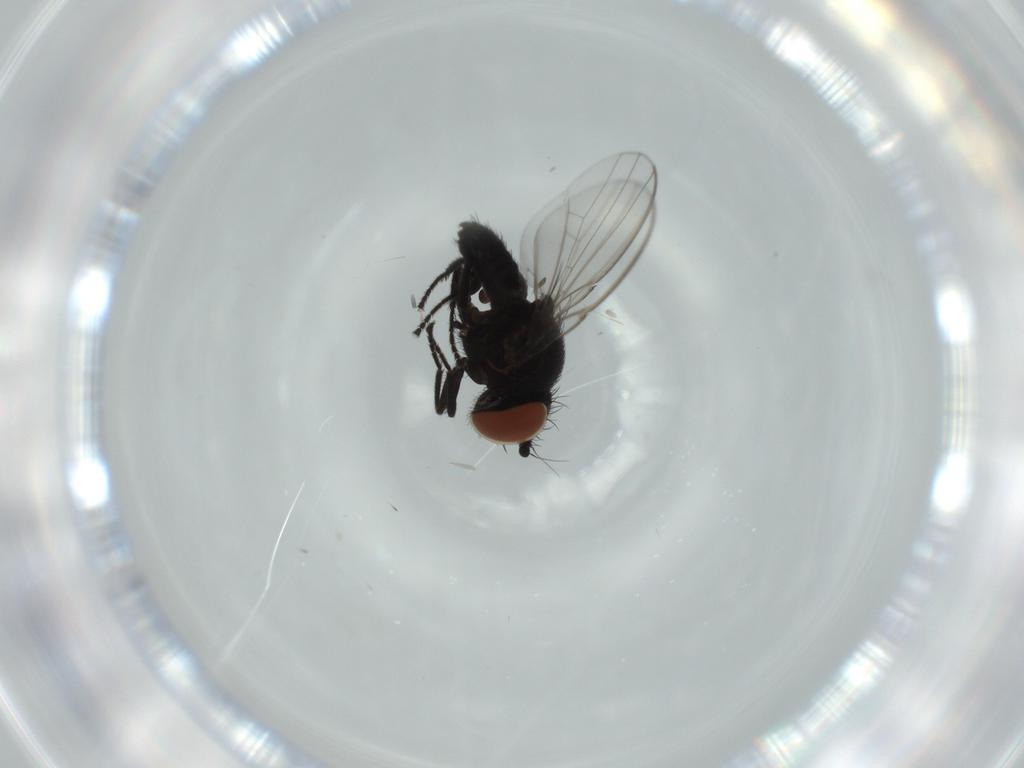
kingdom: Animalia
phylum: Arthropoda
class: Insecta
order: Diptera
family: Milichiidae
